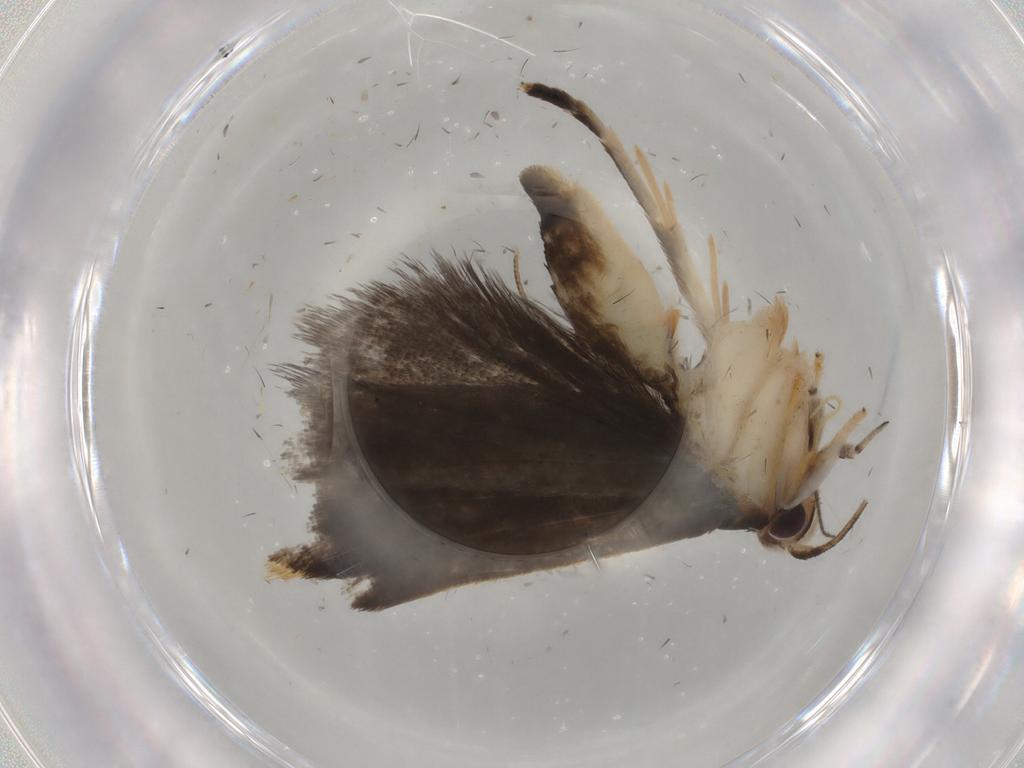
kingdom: Animalia
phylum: Arthropoda
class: Insecta
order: Lepidoptera
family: Gelechiidae
